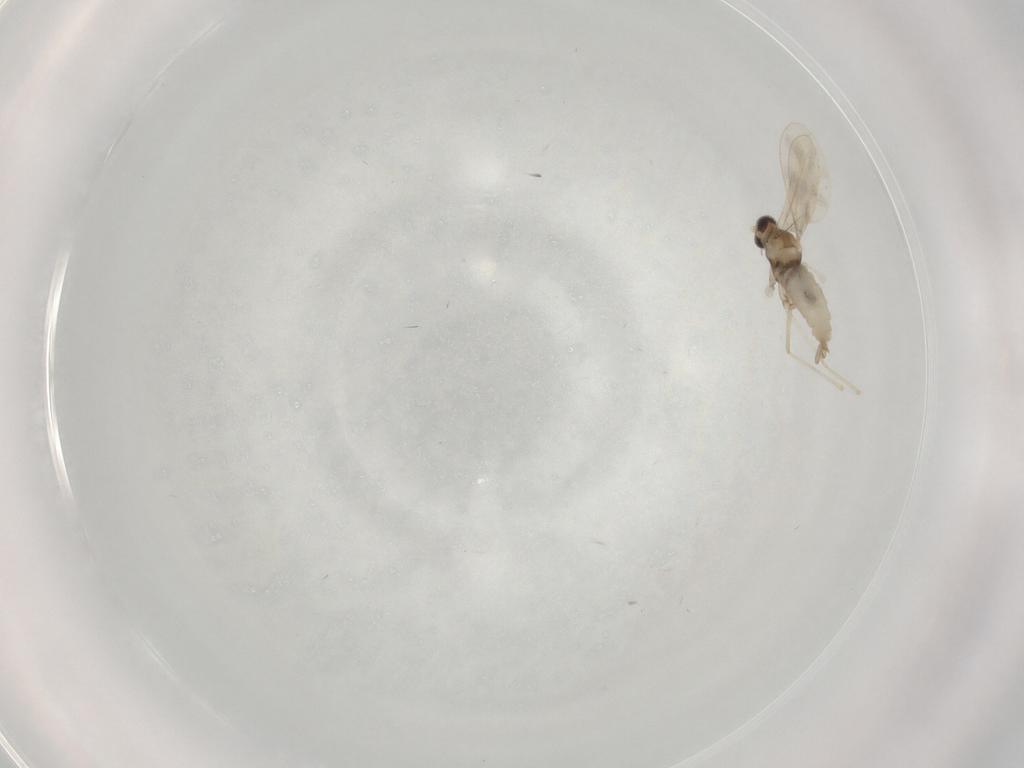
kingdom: Animalia
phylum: Arthropoda
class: Insecta
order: Diptera
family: Cecidomyiidae
